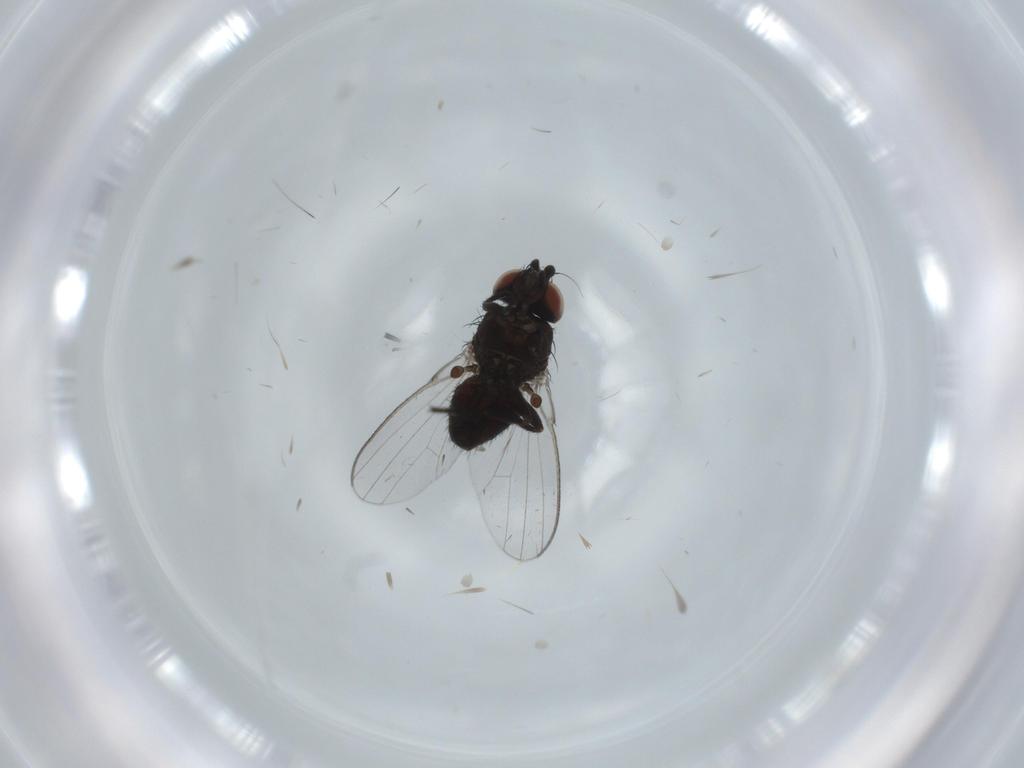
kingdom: Animalia
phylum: Arthropoda
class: Insecta
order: Diptera
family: Milichiidae
